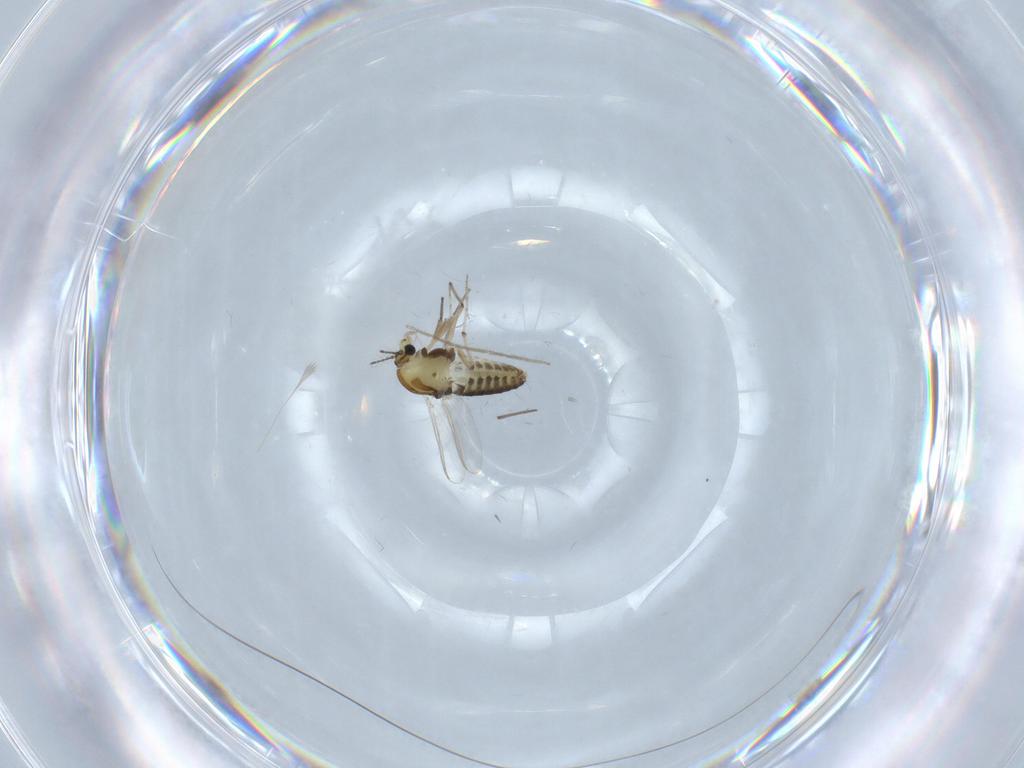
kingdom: Animalia
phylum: Arthropoda
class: Insecta
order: Diptera
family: Chironomidae
